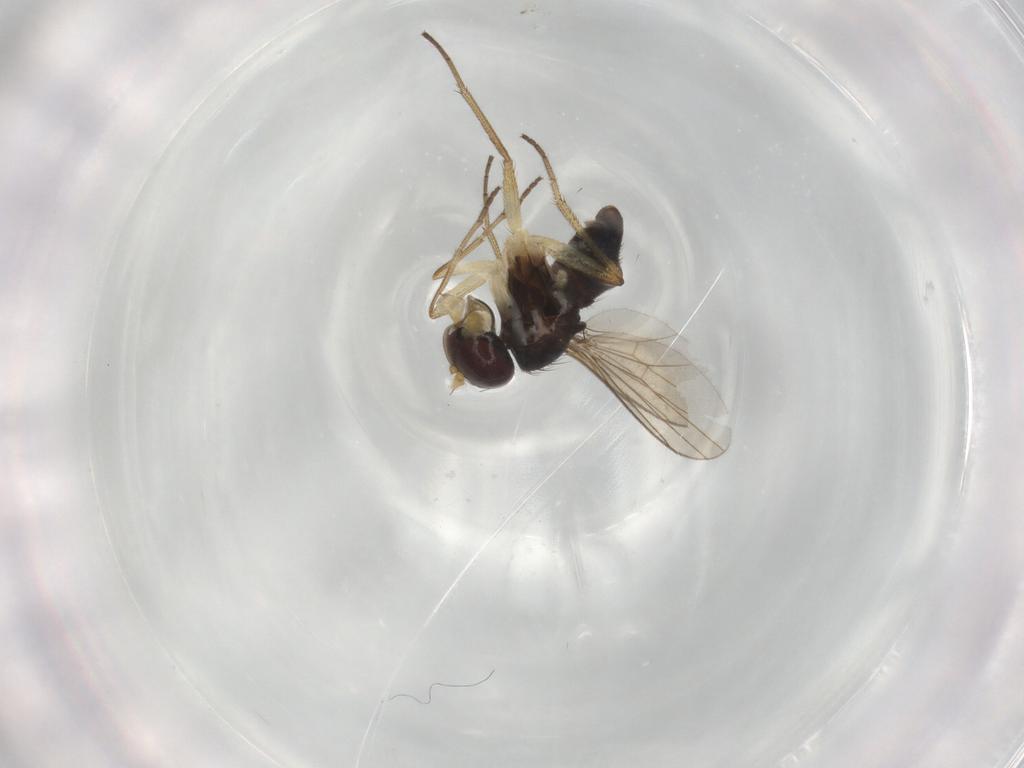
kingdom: Animalia
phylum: Arthropoda
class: Insecta
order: Diptera
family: Dolichopodidae
